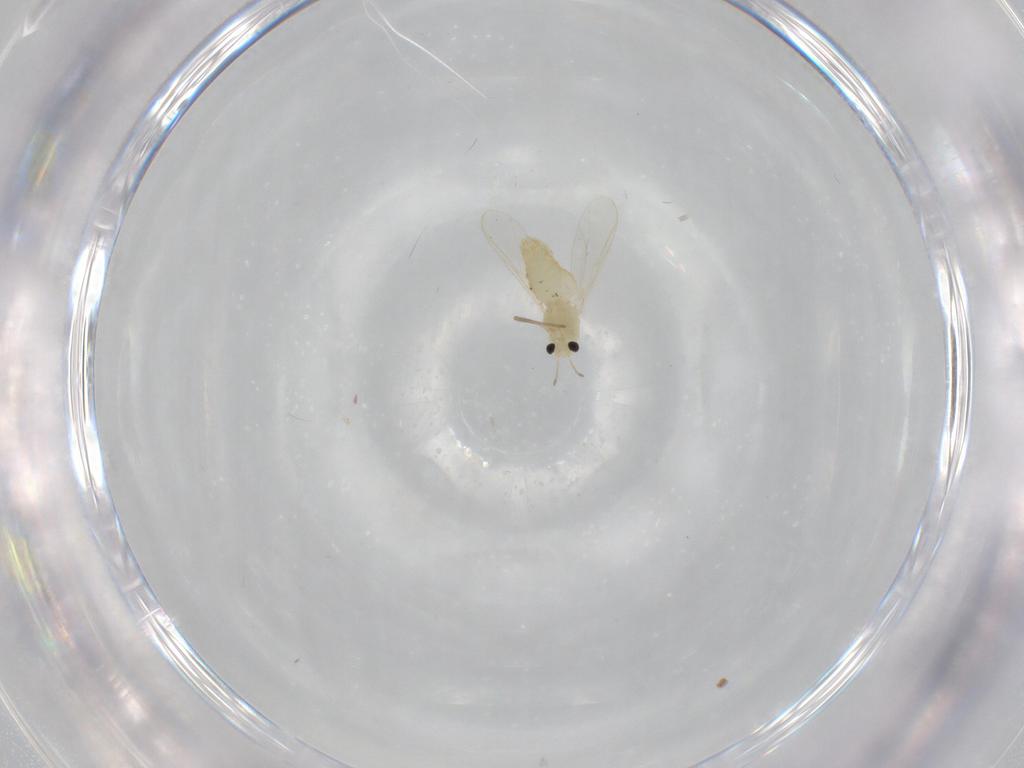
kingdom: Animalia
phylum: Arthropoda
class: Insecta
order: Diptera
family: Chironomidae
